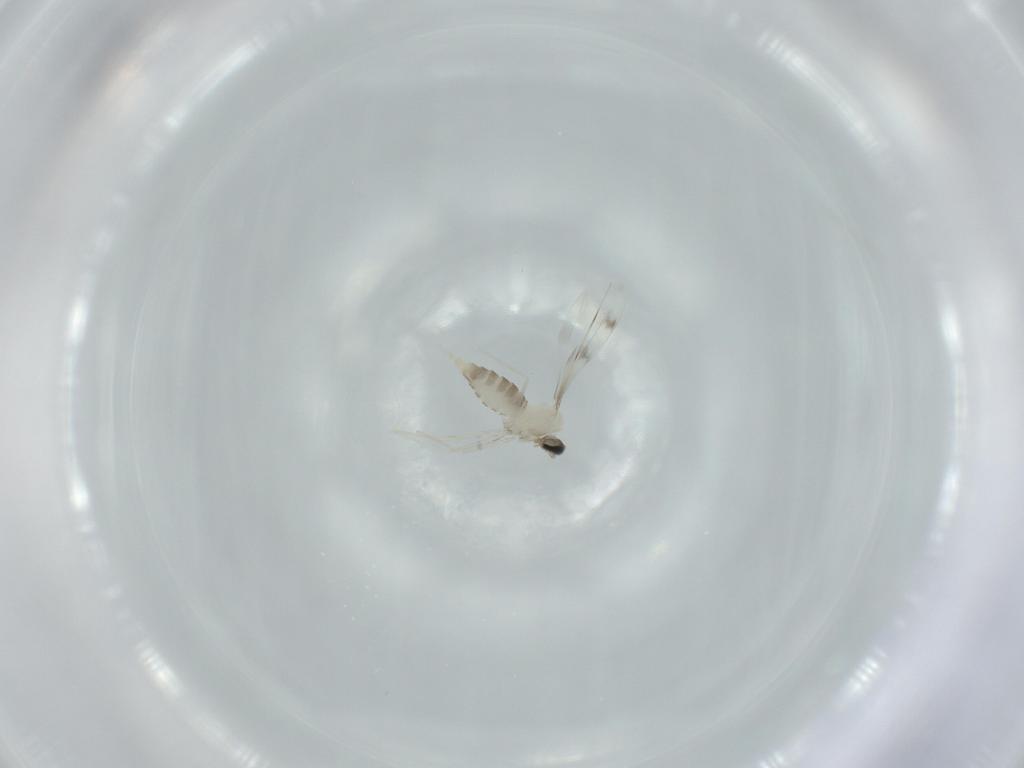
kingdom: Animalia
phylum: Arthropoda
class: Insecta
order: Diptera
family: Cecidomyiidae
